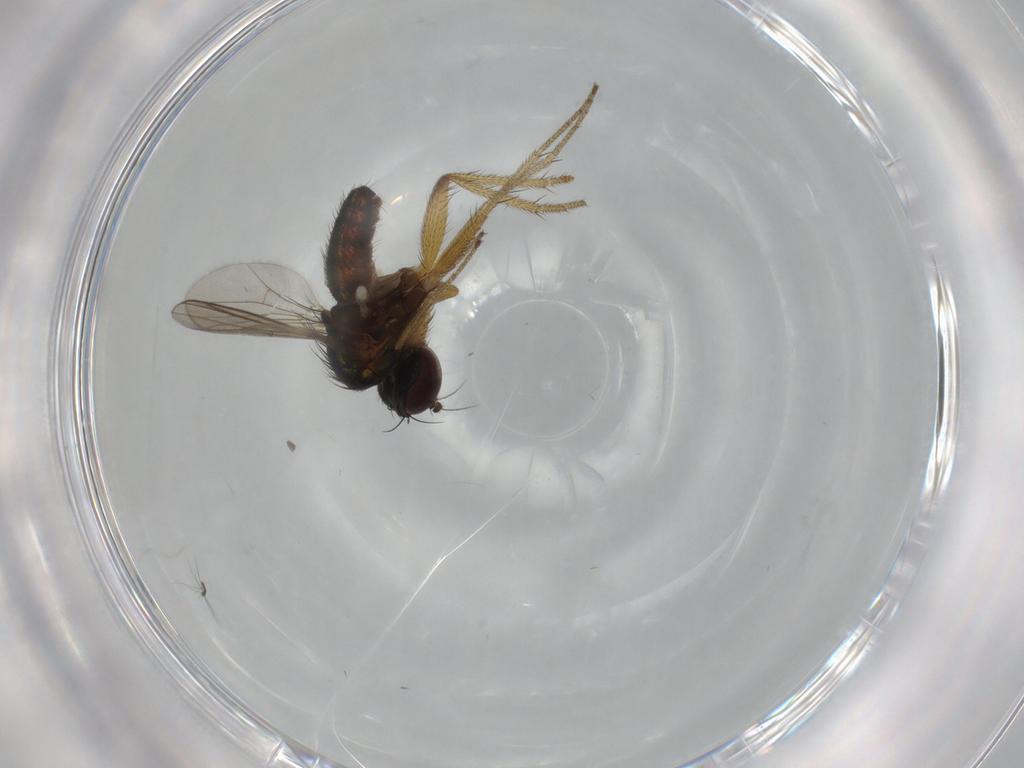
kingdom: Animalia
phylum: Arthropoda
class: Insecta
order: Diptera
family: Dolichopodidae
